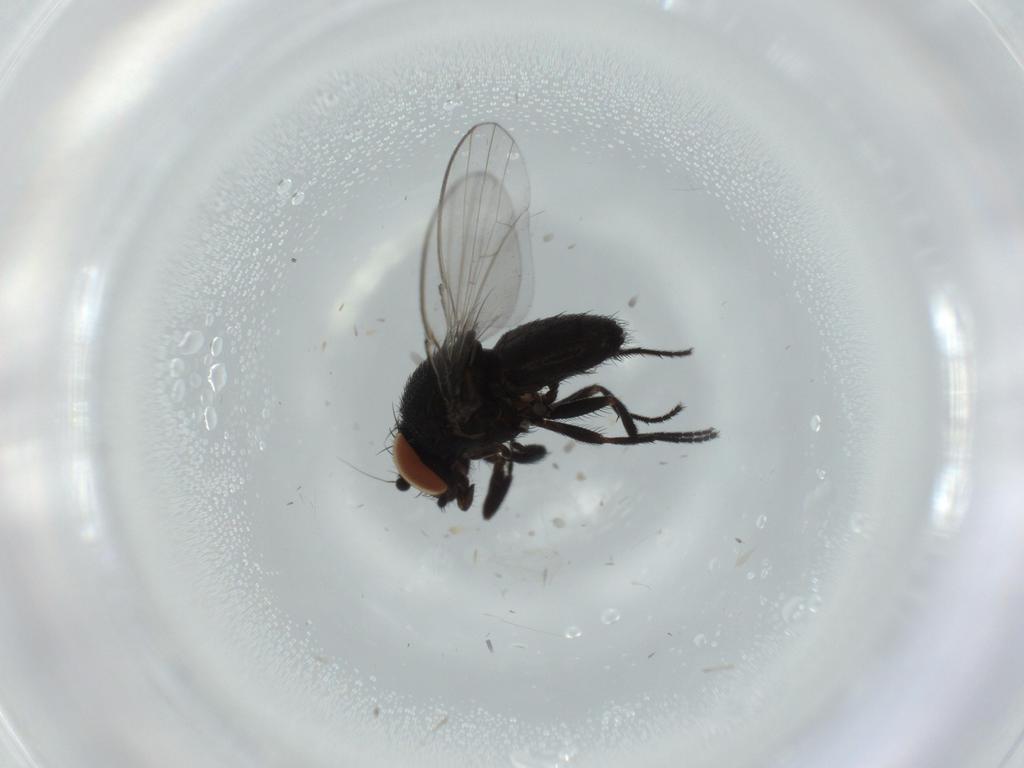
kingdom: Animalia
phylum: Arthropoda
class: Insecta
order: Diptera
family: Milichiidae
